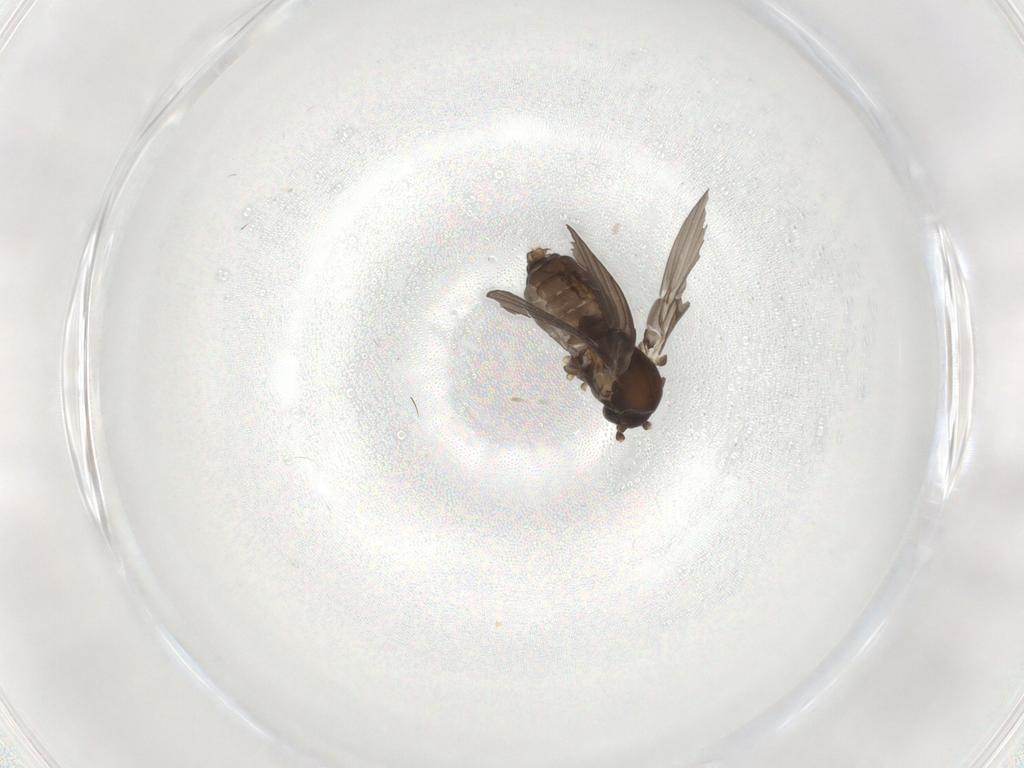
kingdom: Animalia
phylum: Arthropoda
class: Insecta
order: Diptera
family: Psychodidae
